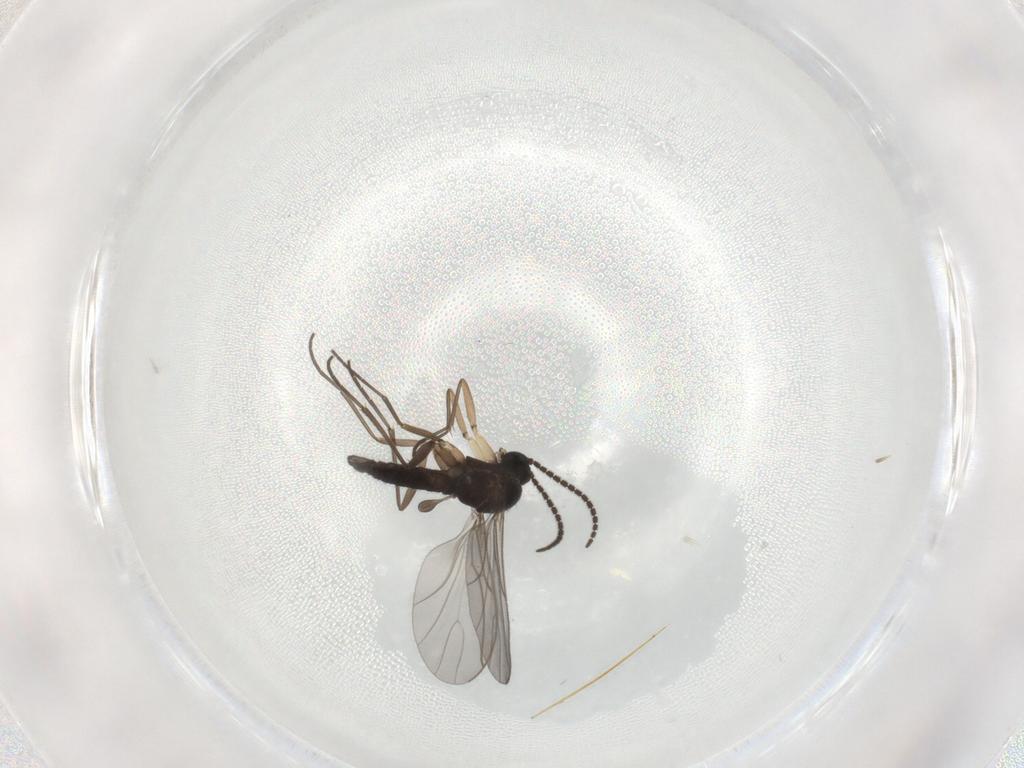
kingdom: Animalia
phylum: Arthropoda
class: Insecta
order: Diptera
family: Sciaridae
